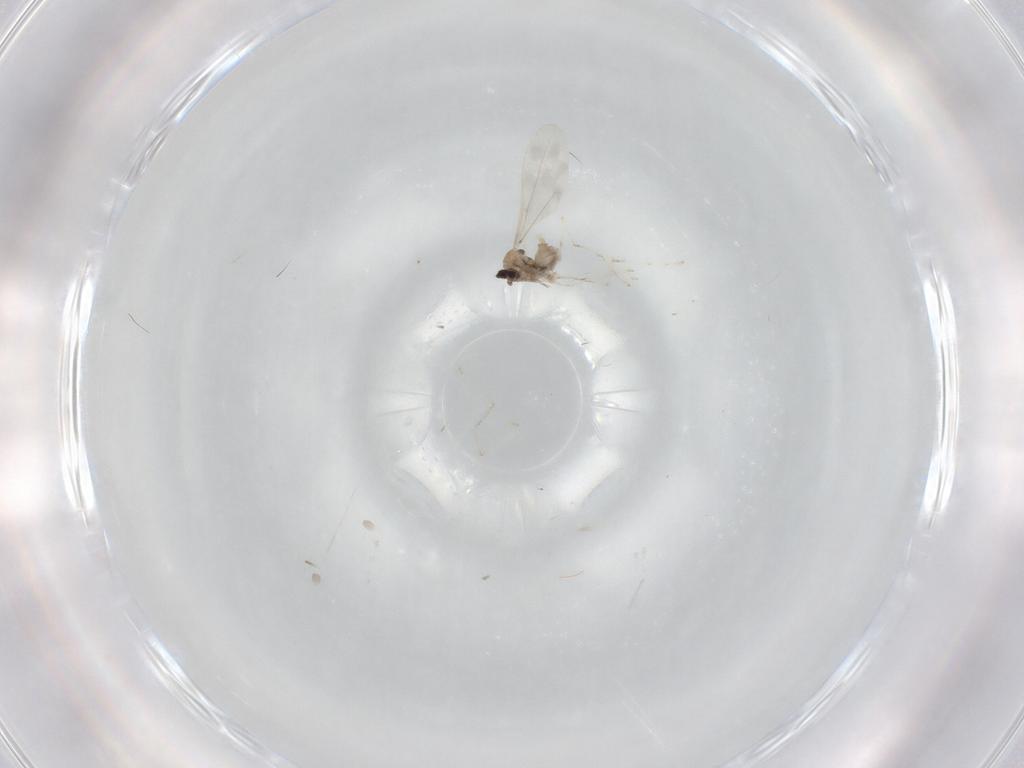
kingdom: Animalia
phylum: Arthropoda
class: Insecta
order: Diptera
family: Cecidomyiidae
